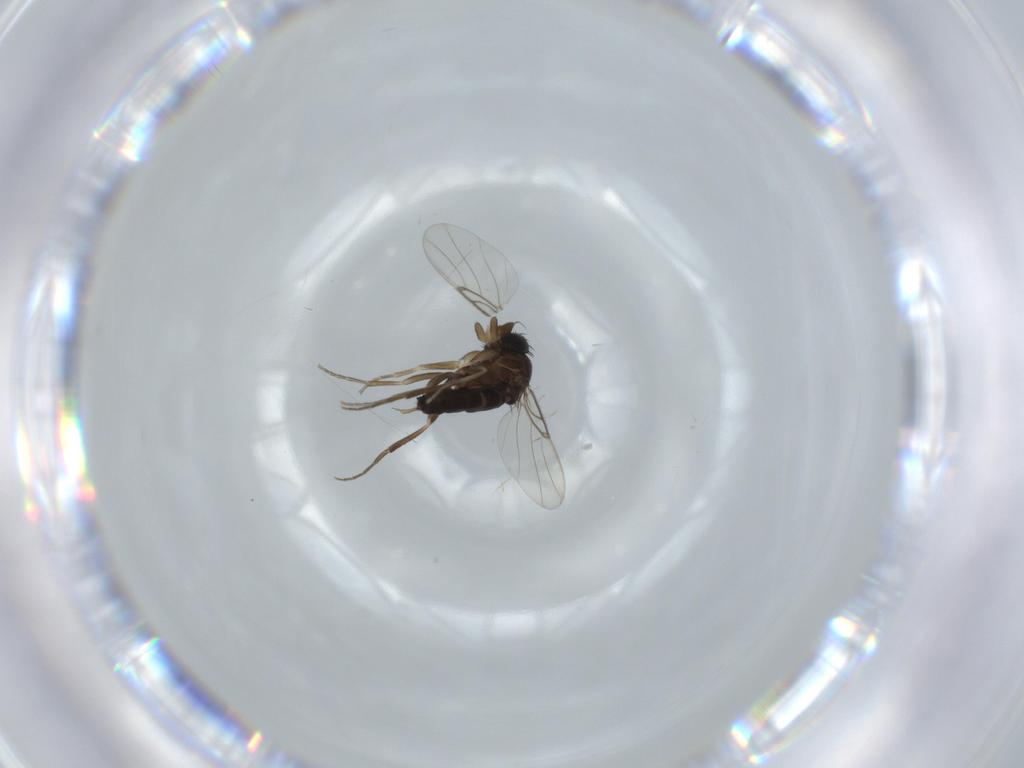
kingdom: Animalia
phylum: Arthropoda
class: Insecta
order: Diptera
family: Phoridae
